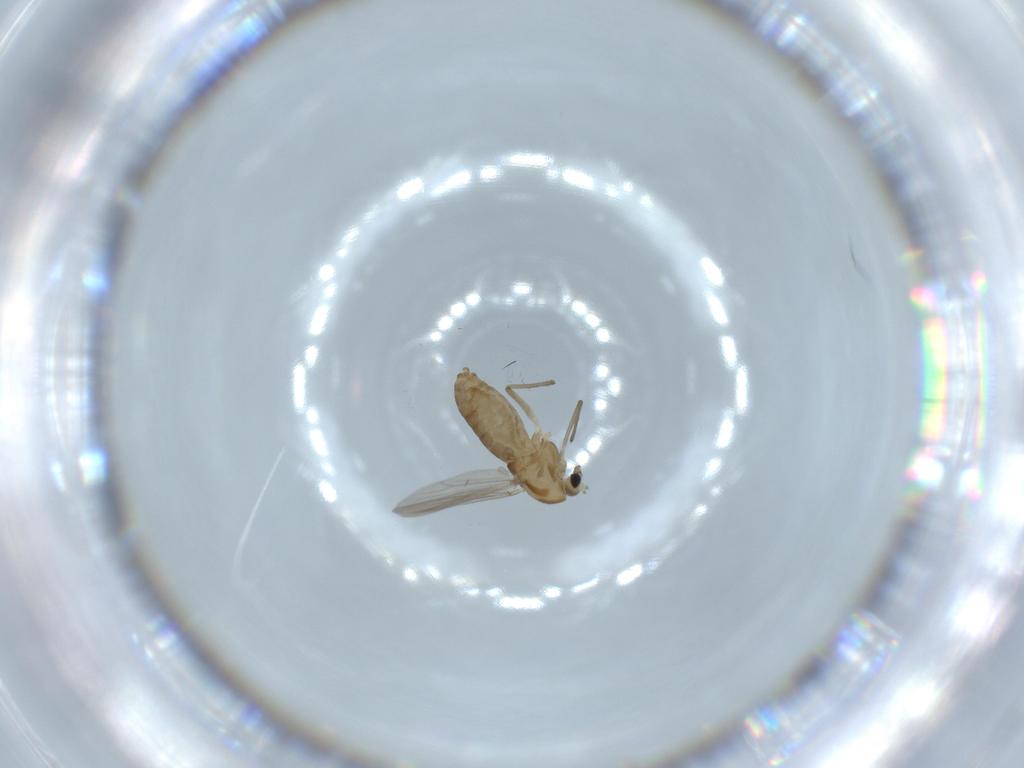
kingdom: Animalia
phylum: Arthropoda
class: Insecta
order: Diptera
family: Chironomidae
